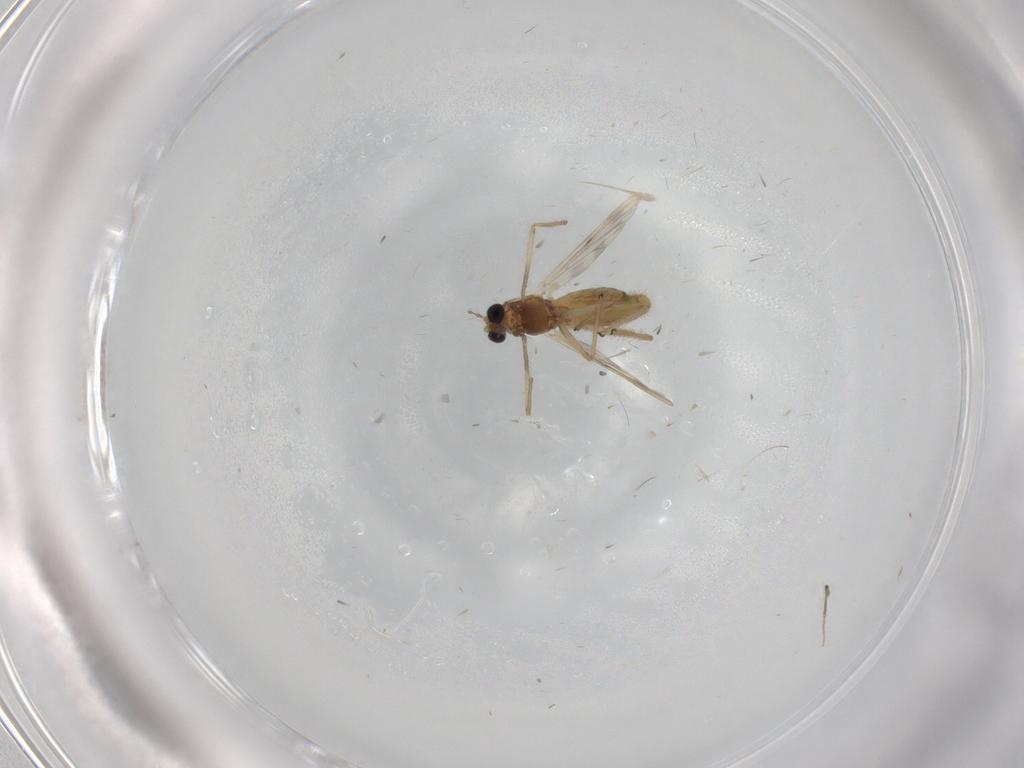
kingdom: Animalia
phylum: Arthropoda
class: Insecta
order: Diptera
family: Chironomidae
